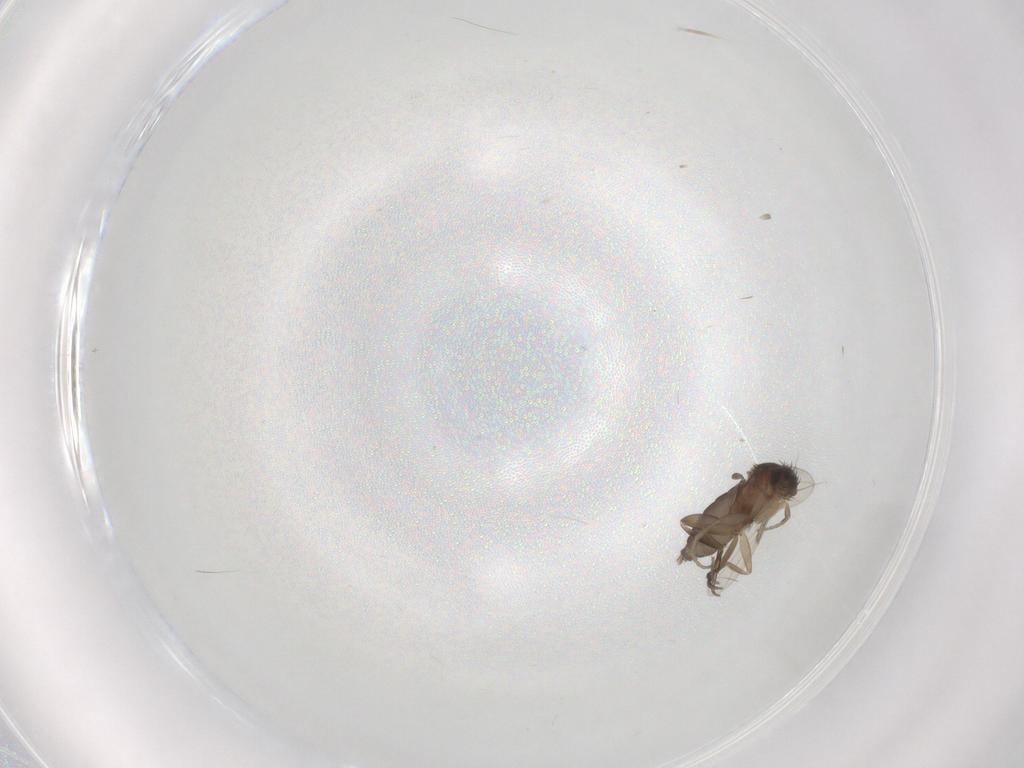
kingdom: Animalia
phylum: Arthropoda
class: Insecta
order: Diptera
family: Phoridae
